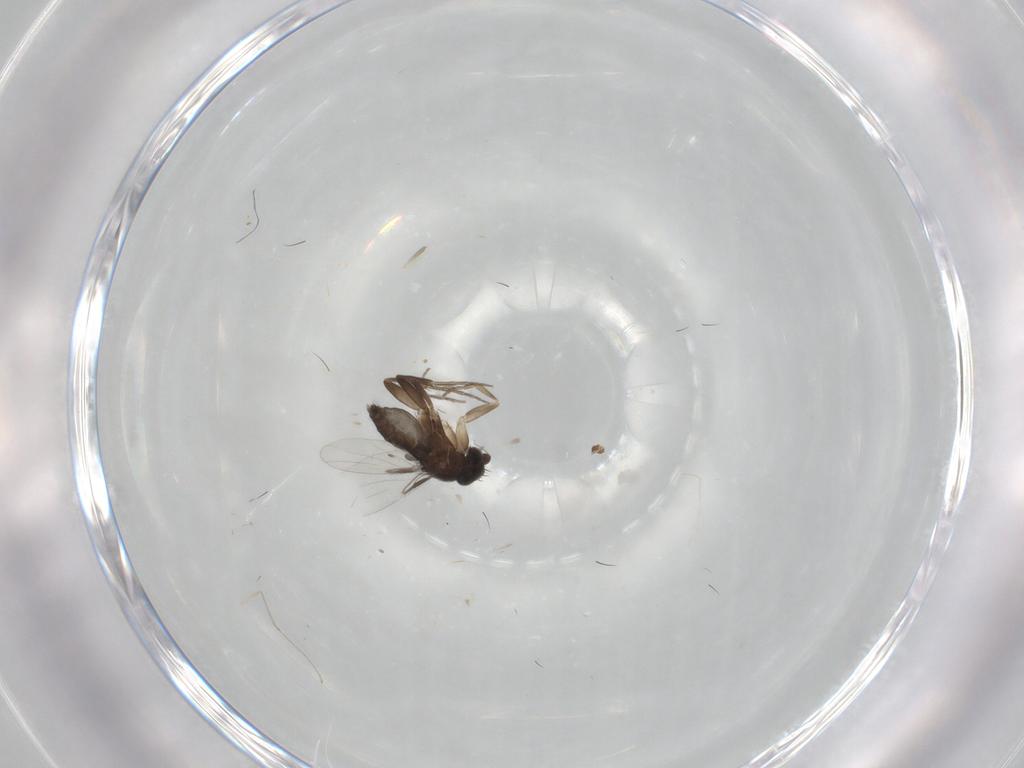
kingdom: Animalia
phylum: Arthropoda
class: Insecta
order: Diptera
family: Phoridae
